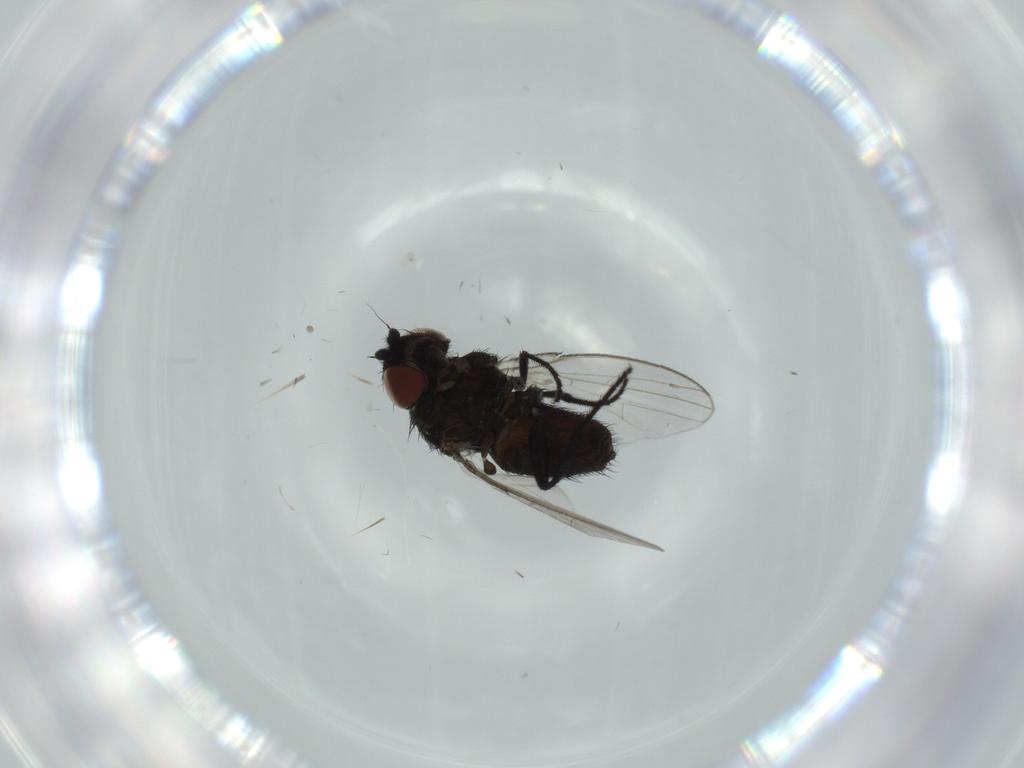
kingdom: Animalia
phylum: Arthropoda
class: Insecta
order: Diptera
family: Milichiidae
